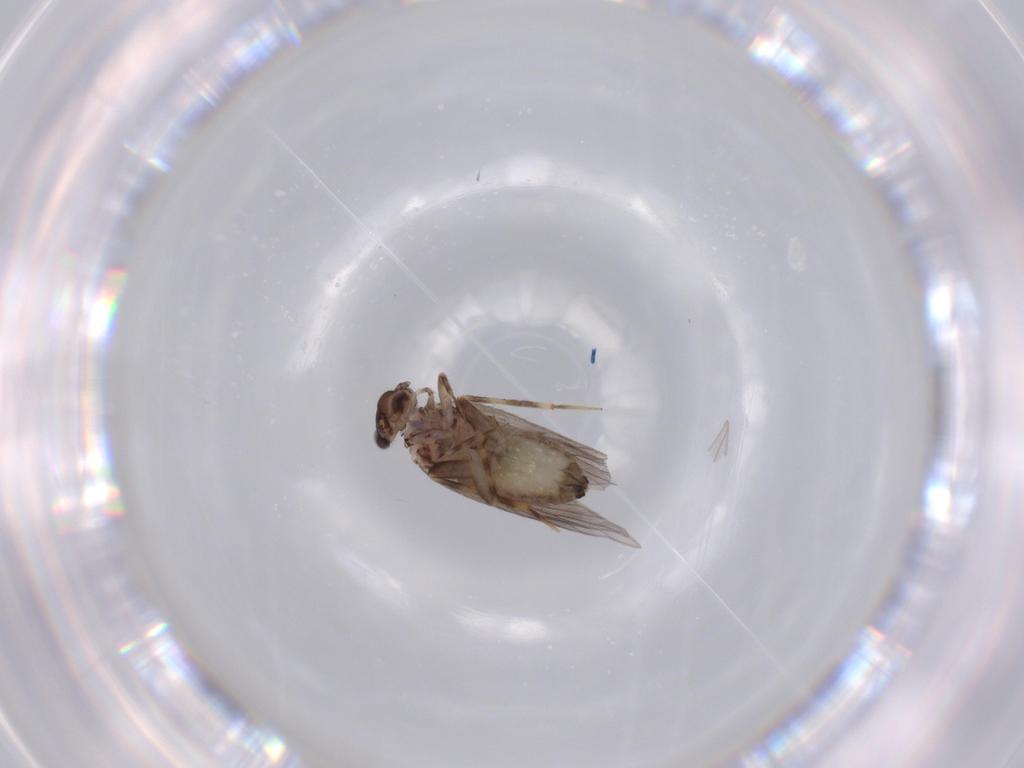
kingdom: Animalia
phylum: Arthropoda
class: Insecta
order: Psocodea
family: Lepidopsocidae
